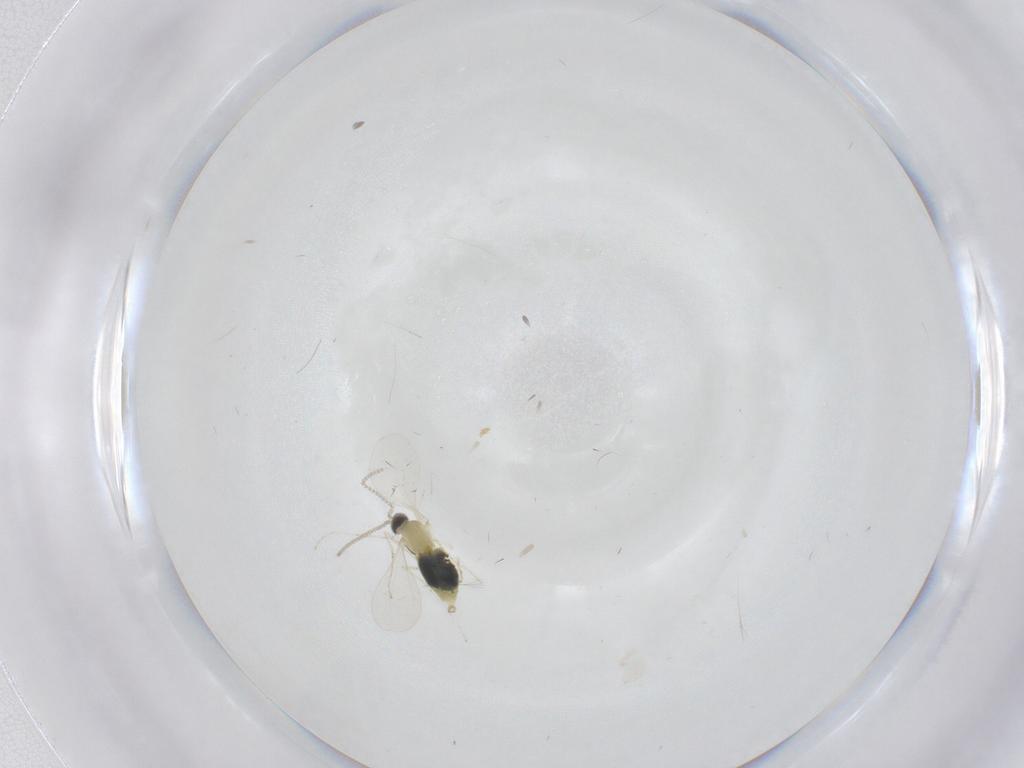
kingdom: Animalia
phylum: Arthropoda
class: Insecta
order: Diptera
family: Cecidomyiidae
